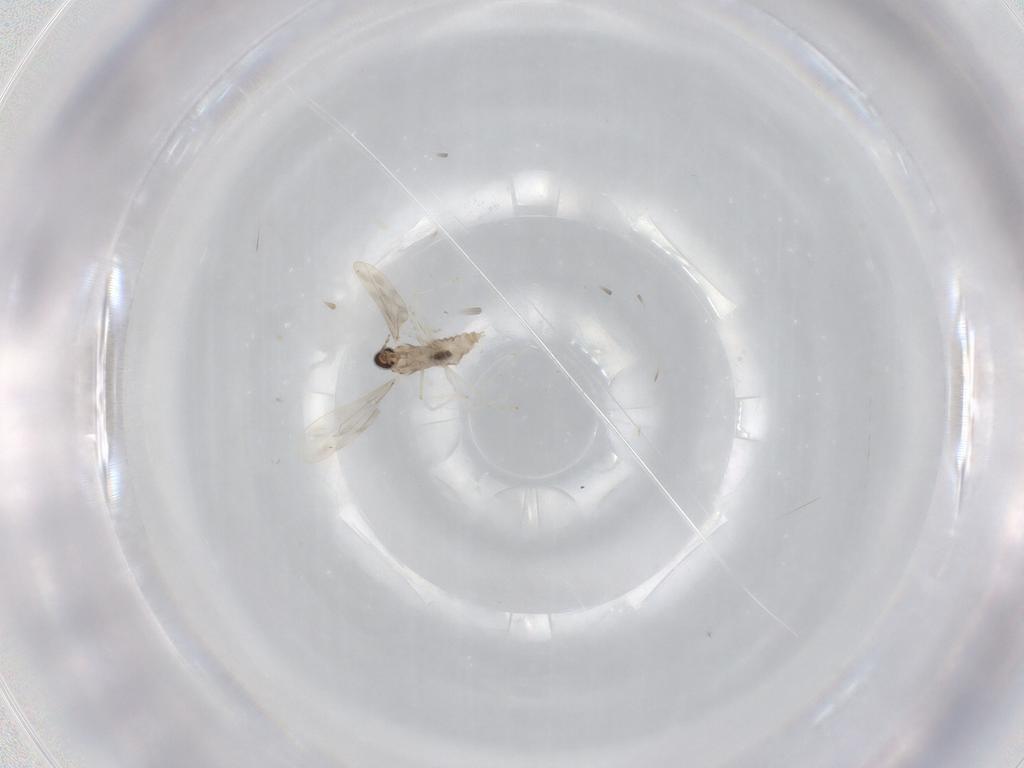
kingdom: Animalia
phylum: Arthropoda
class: Insecta
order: Diptera
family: Cecidomyiidae
